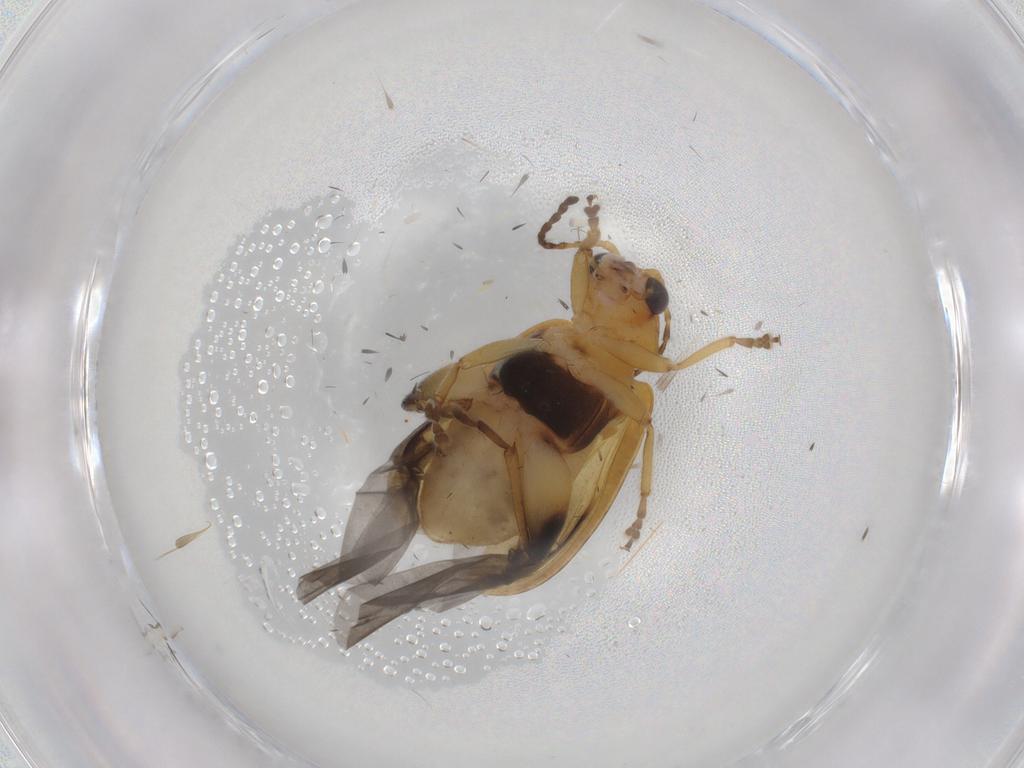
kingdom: Animalia
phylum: Arthropoda
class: Insecta
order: Coleoptera
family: Chrysomelidae
